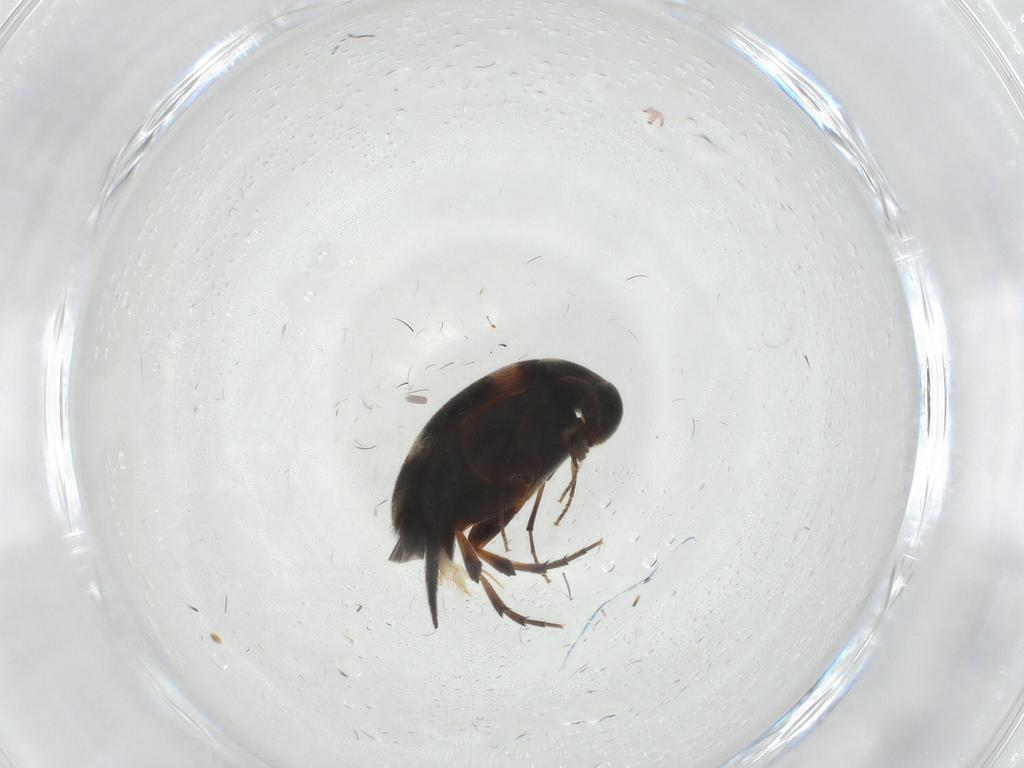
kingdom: Animalia
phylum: Arthropoda
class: Insecta
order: Coleoptera
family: Mordellidae
